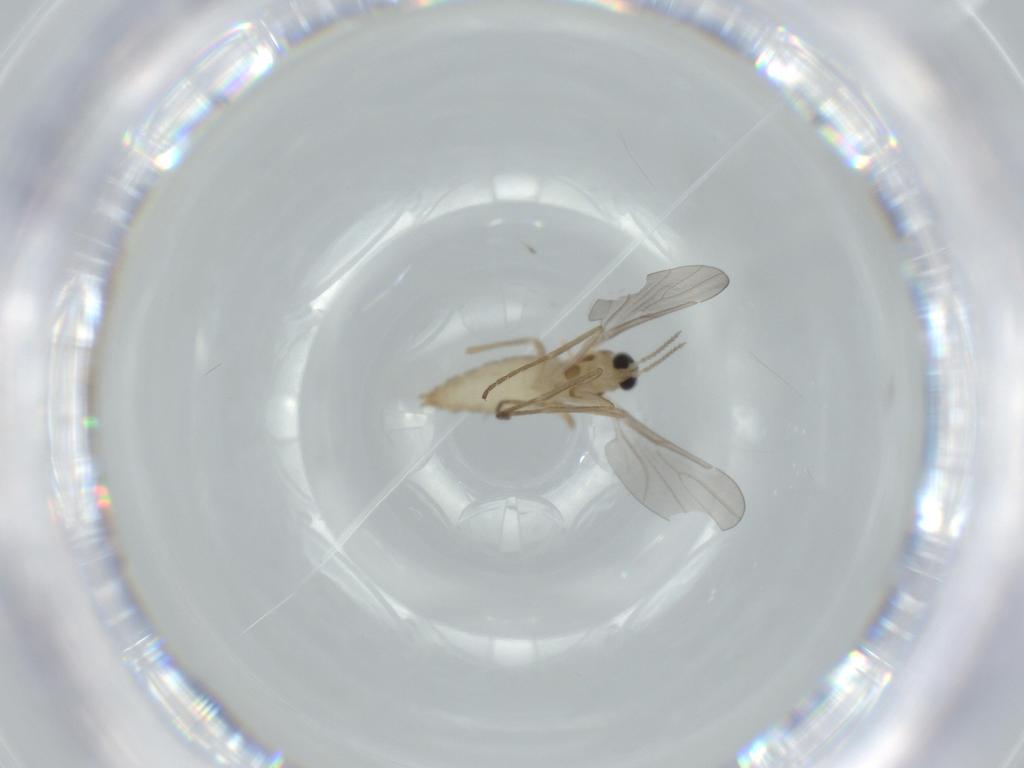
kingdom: Animalia
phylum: Arthropoda
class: Insecta
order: Diptera
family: Cecidomyiidae
